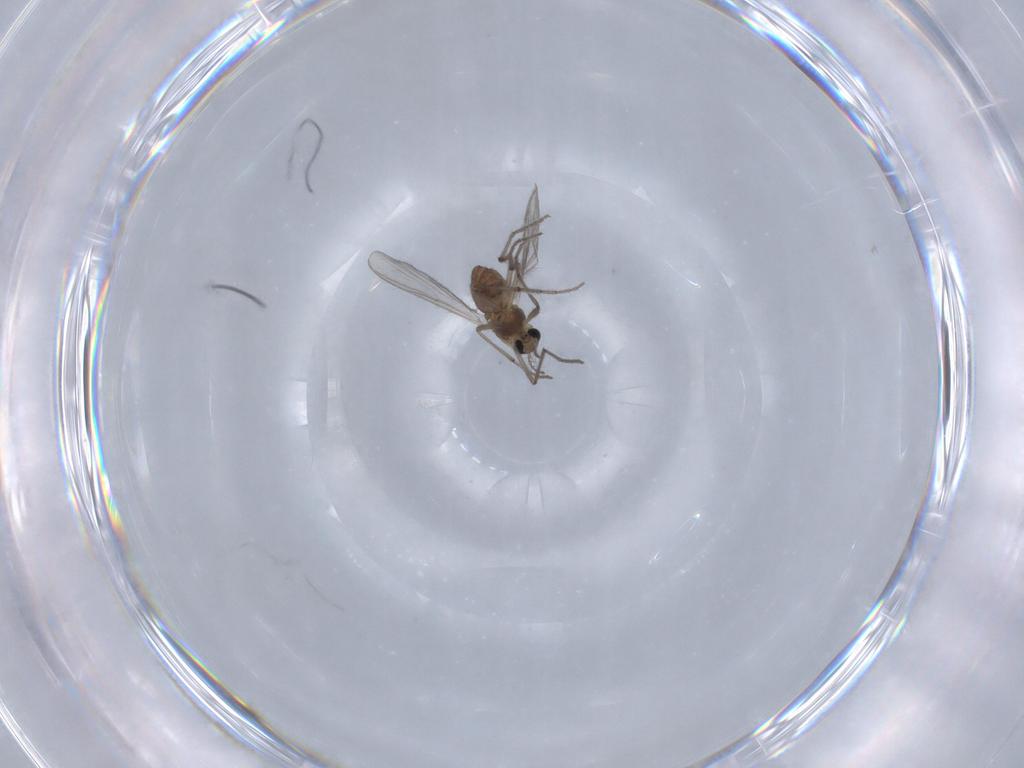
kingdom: Animalia
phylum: Arthropoda
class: Insecta
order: Diptera
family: Chironomidae
